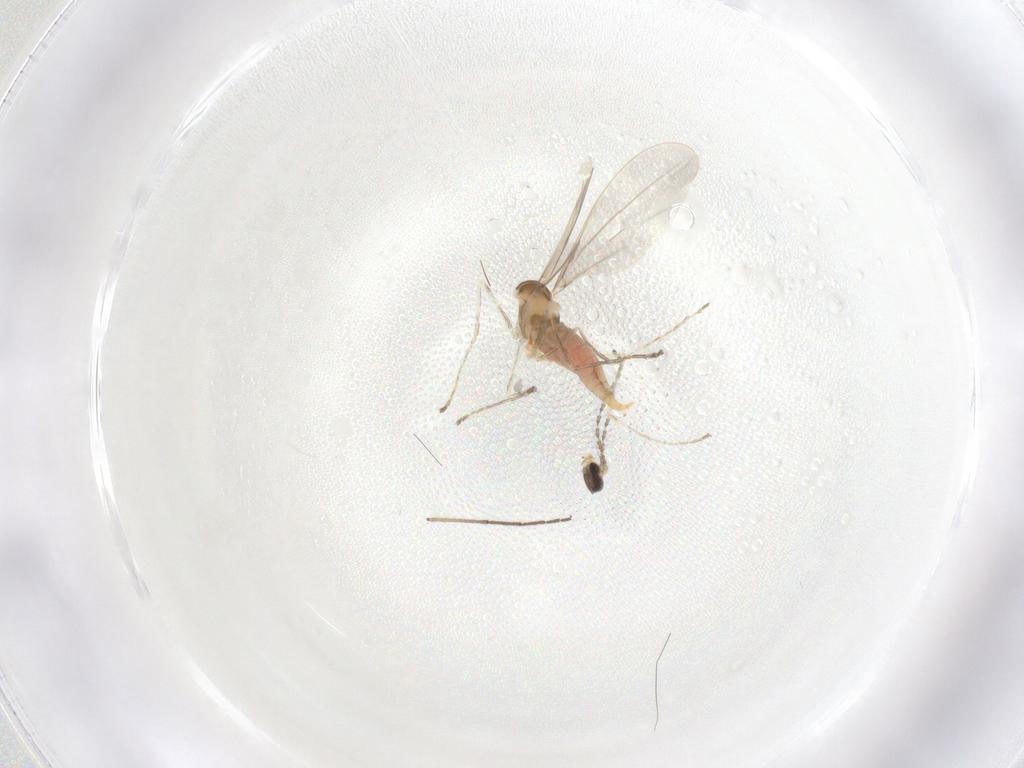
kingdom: Animalia
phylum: Arthropoda
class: Insecta
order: Diptera
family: Cecidomyiidae
